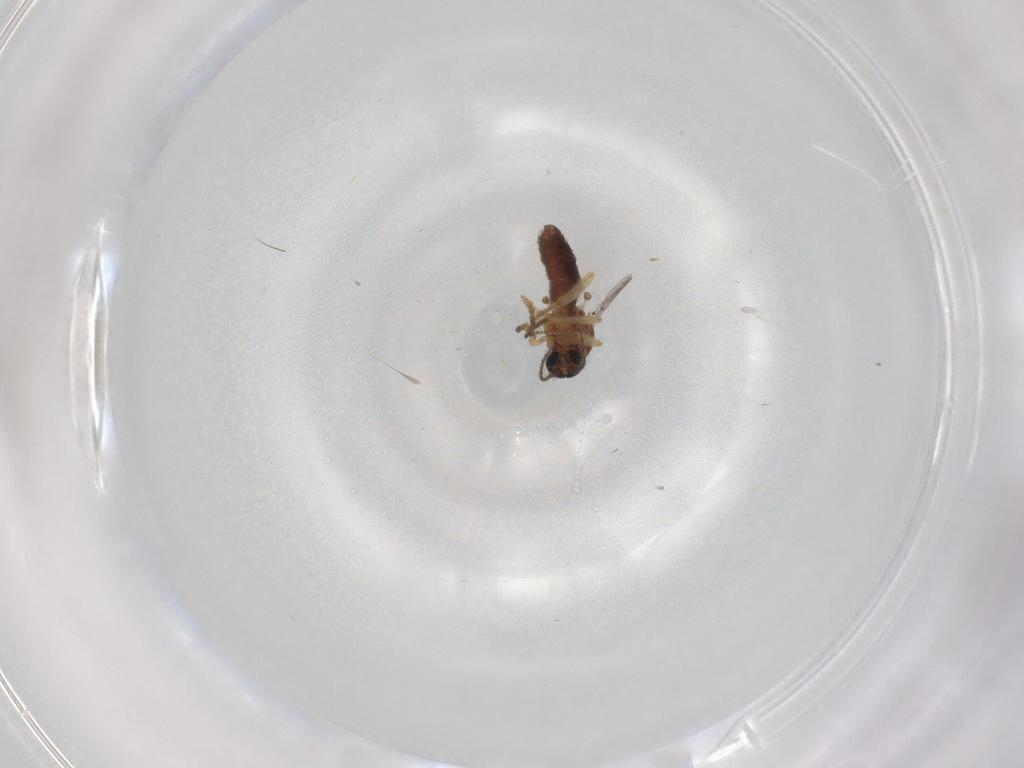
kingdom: Animalia
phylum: Arthropoda
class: Insecta
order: Diptera
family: Ceratopogonidae
